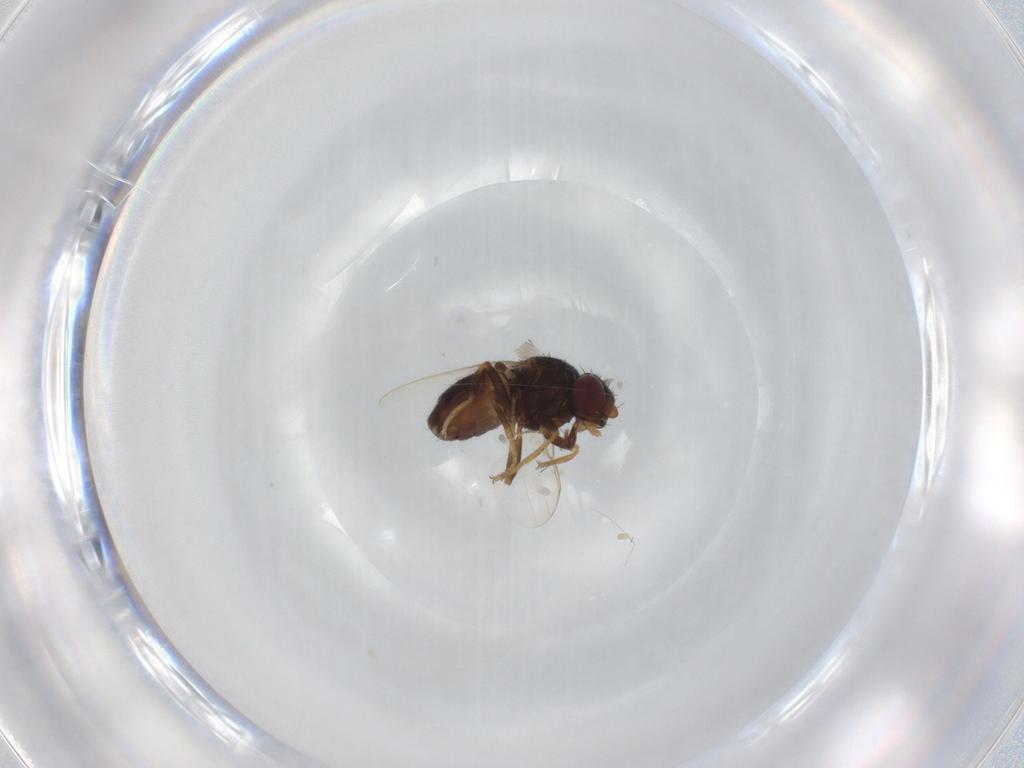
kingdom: Animalia
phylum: Arthropoda
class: Insecta
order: Diptera
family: Chloropidae
